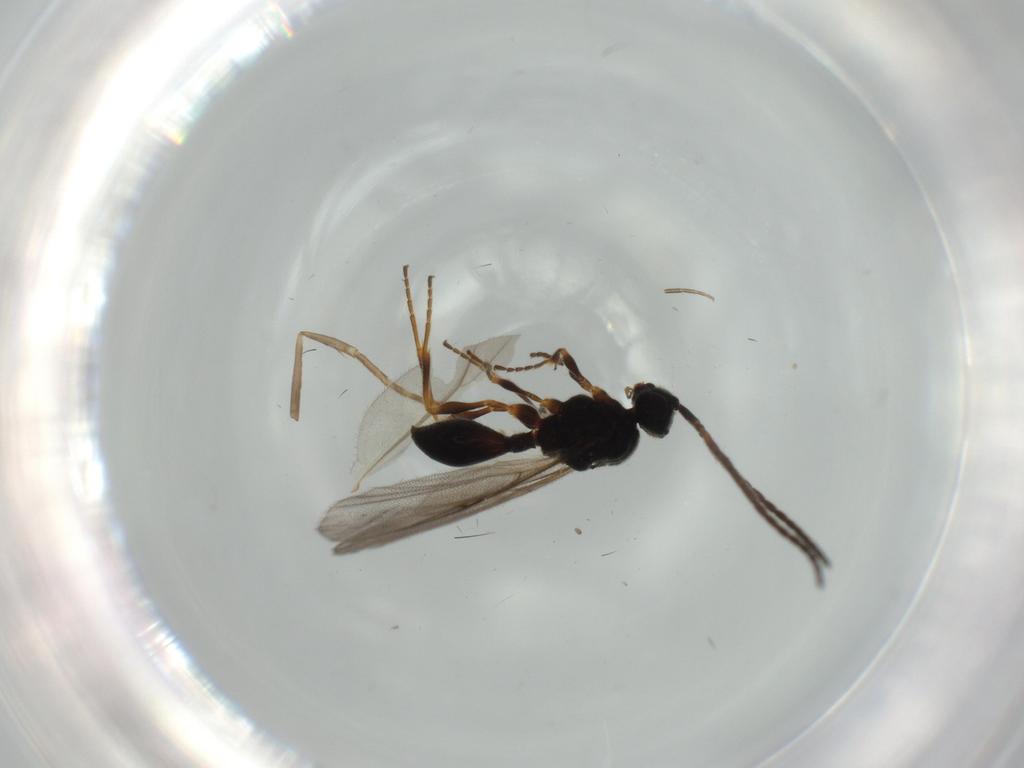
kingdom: Animalia
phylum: Arthropoda
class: Insecta
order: Hymenoptera
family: Diapriidae
